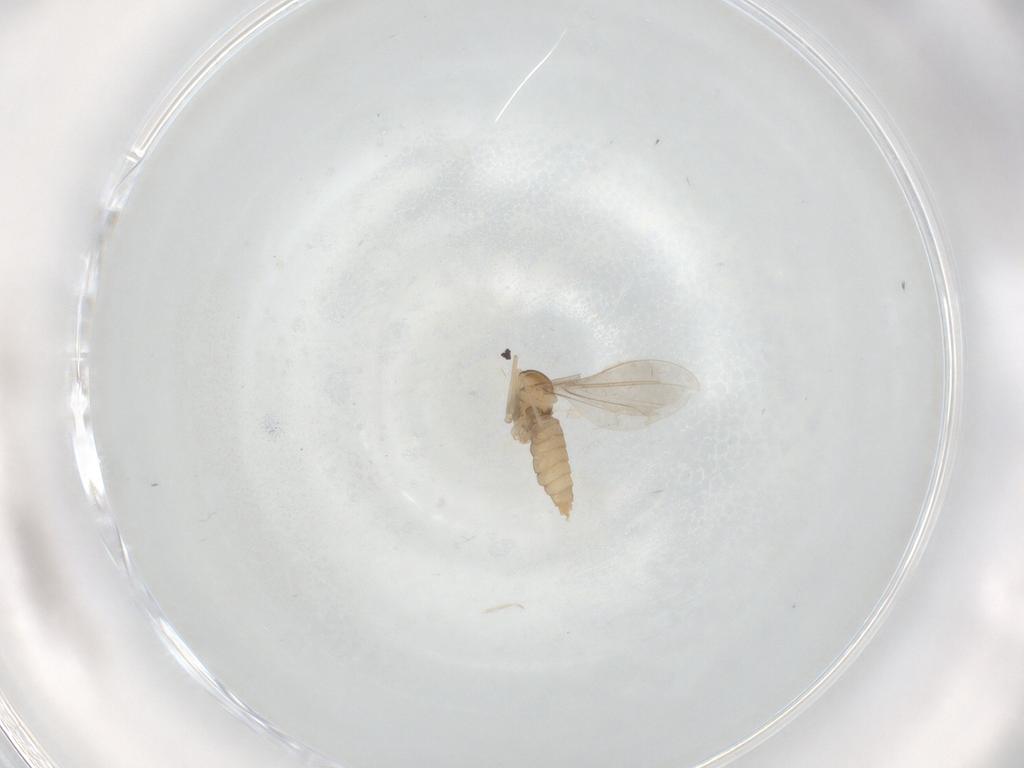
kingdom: Animalia
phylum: Arthropoda
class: Insecta
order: Diptera
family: Cecidomyiidae
